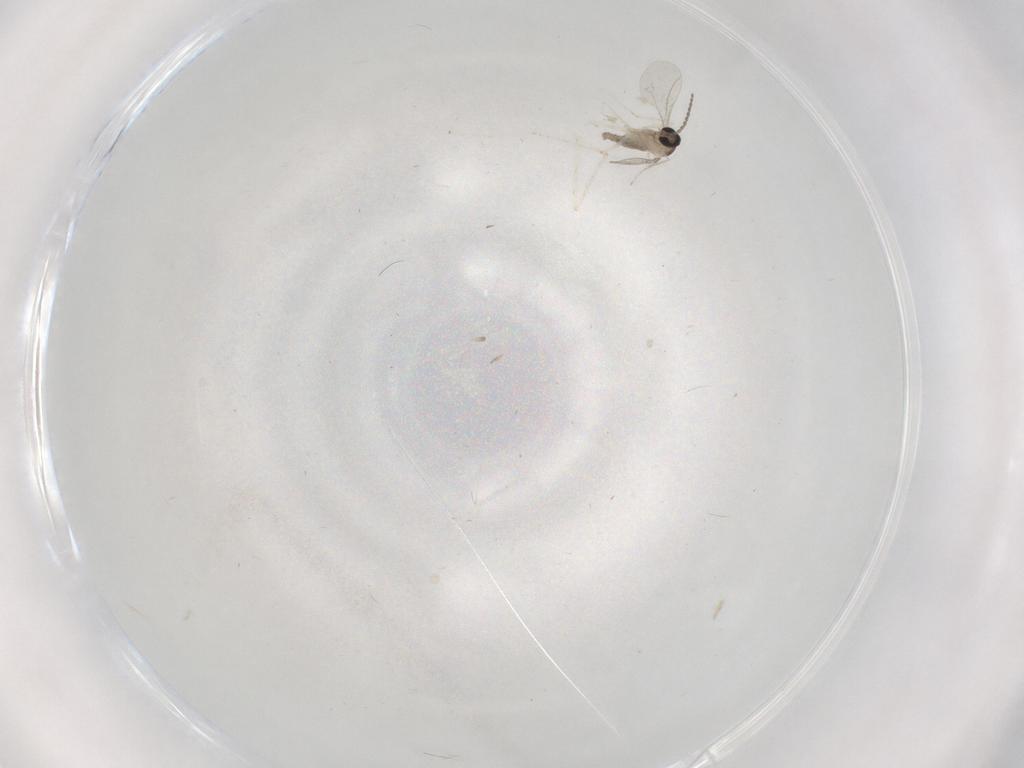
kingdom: Animalia
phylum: Arthropoda
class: Insecta
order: Diptera
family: Cecidomyiidae
